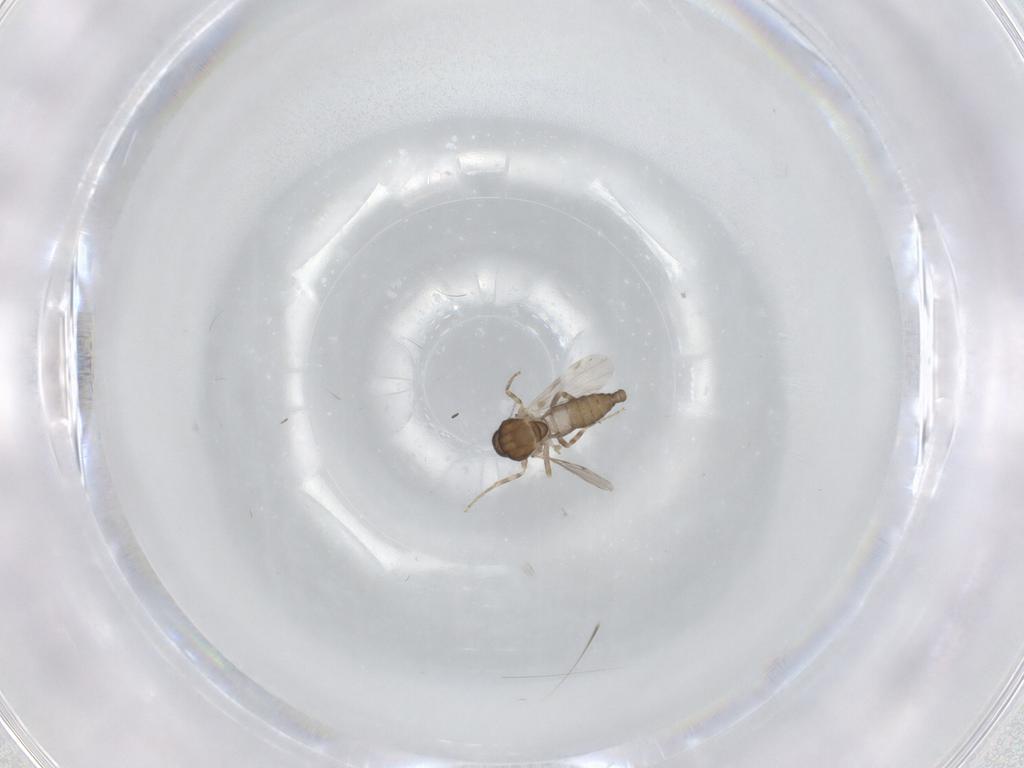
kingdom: Animalia
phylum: Arthropoda
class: Insecta
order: Diptera
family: Ceratopogonidae
